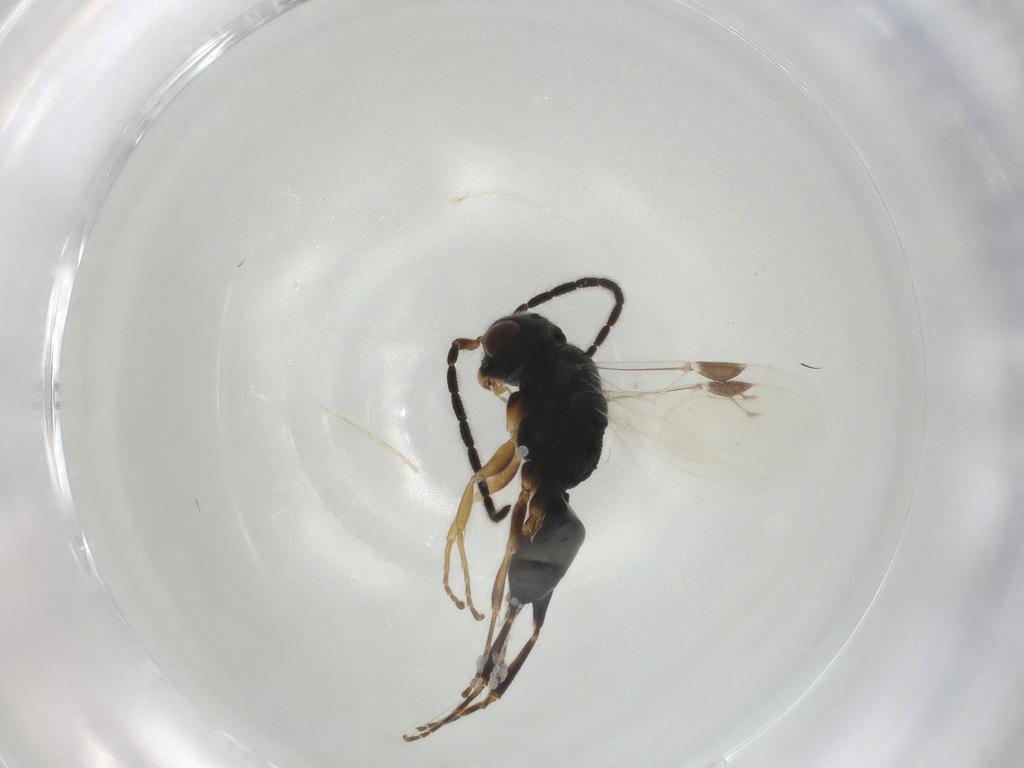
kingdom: Animalia
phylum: Arthropoda
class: Insecta
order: Hymenoptera
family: Dryinidae
